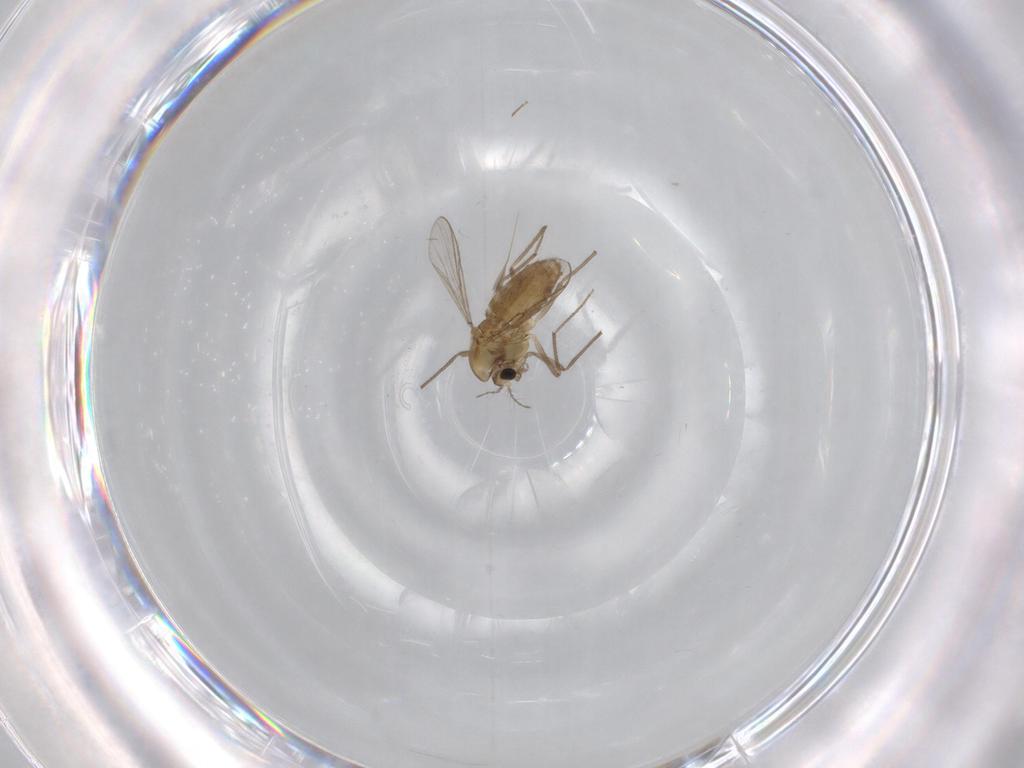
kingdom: Animalia
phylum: Arthropoda
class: Insecta
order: Diptera
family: Chironomidae
